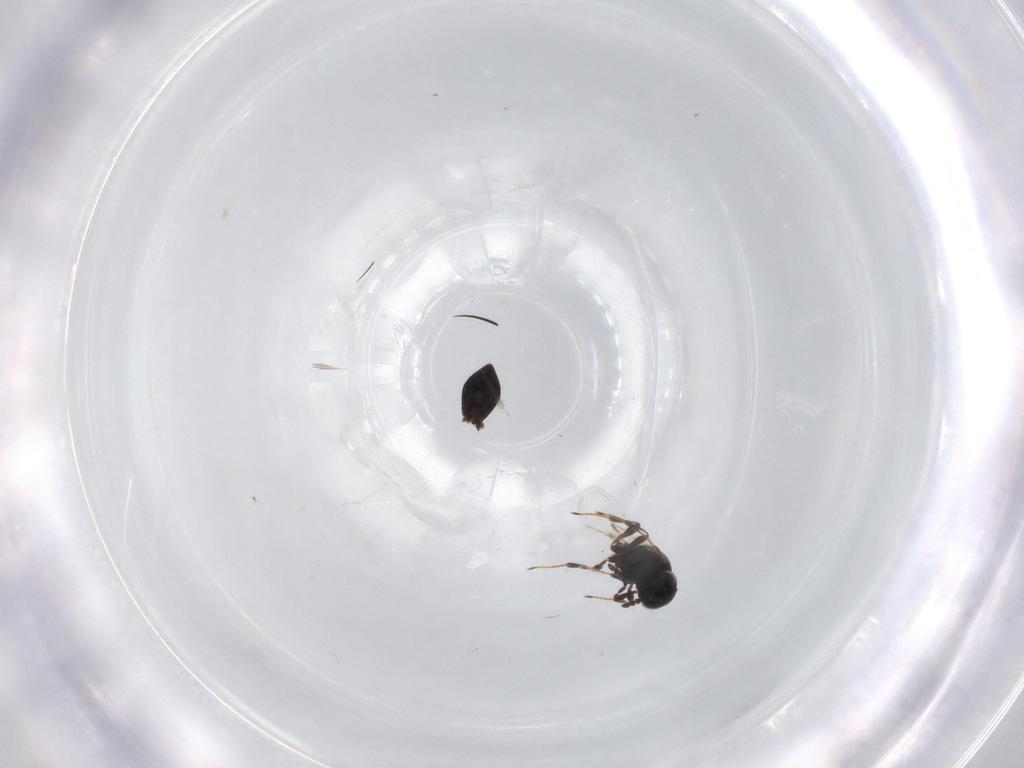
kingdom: Animalia
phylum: Arthropoda
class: Insecta
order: Hymenoptera
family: Platygastridae
